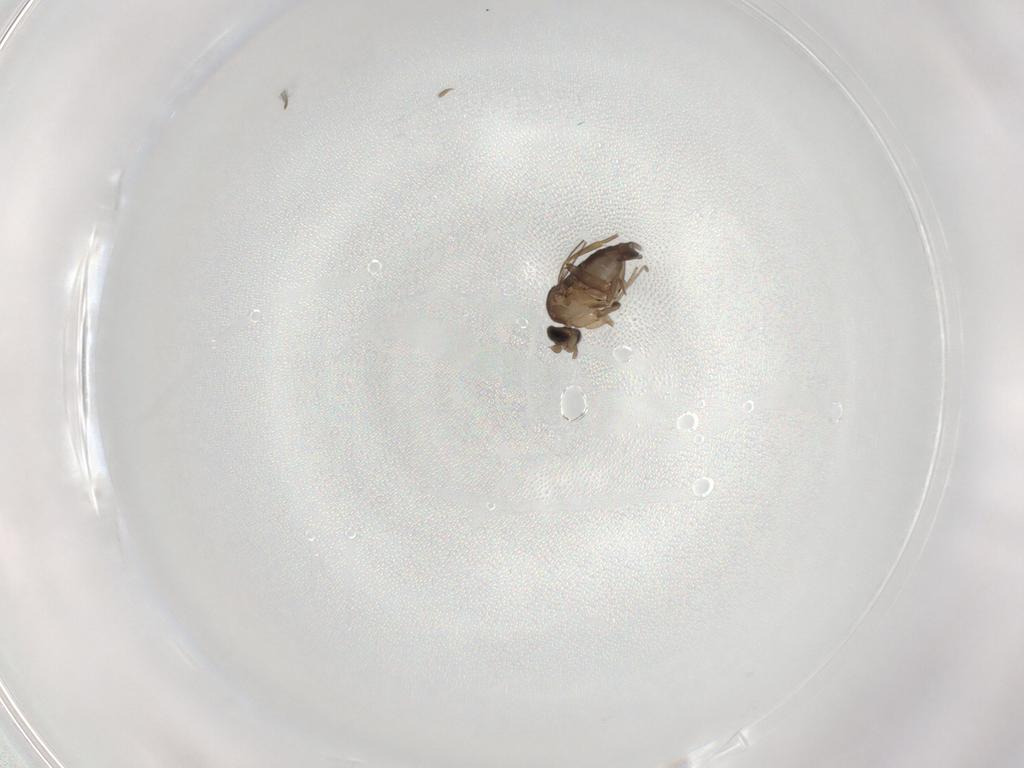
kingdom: Animalia
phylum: Arthropoda
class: Insecta
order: Diptera
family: Phoridae
